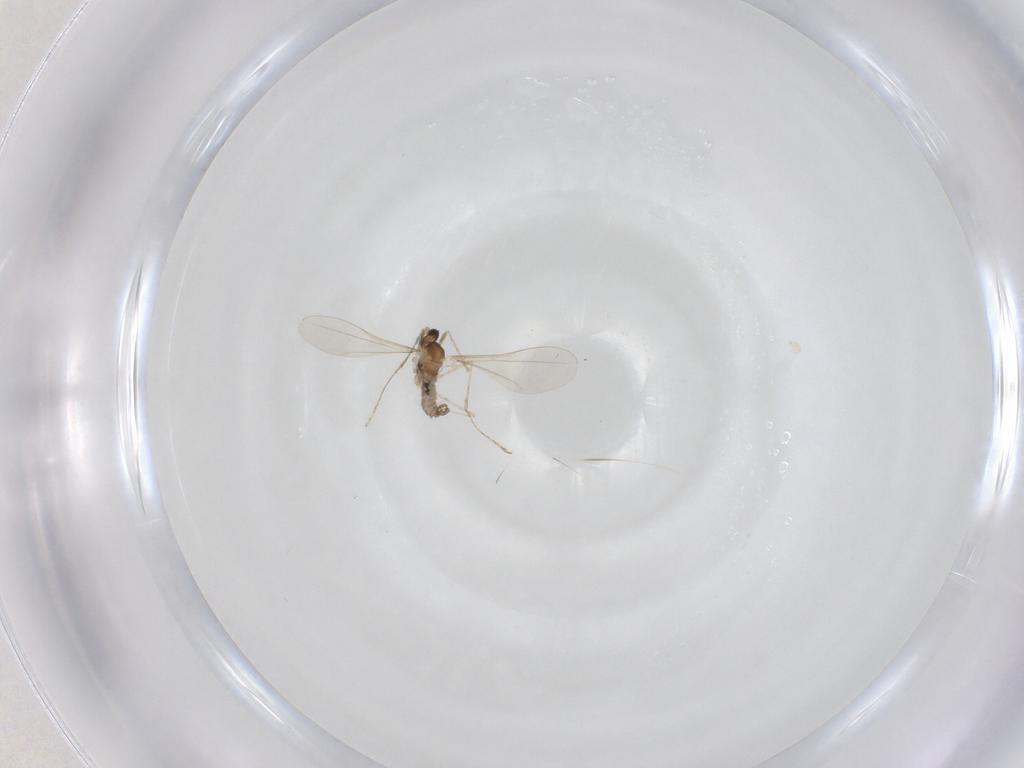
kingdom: Animalia
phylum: Arthropoda
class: Insecta
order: Diptera
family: Cecidomyiidae
